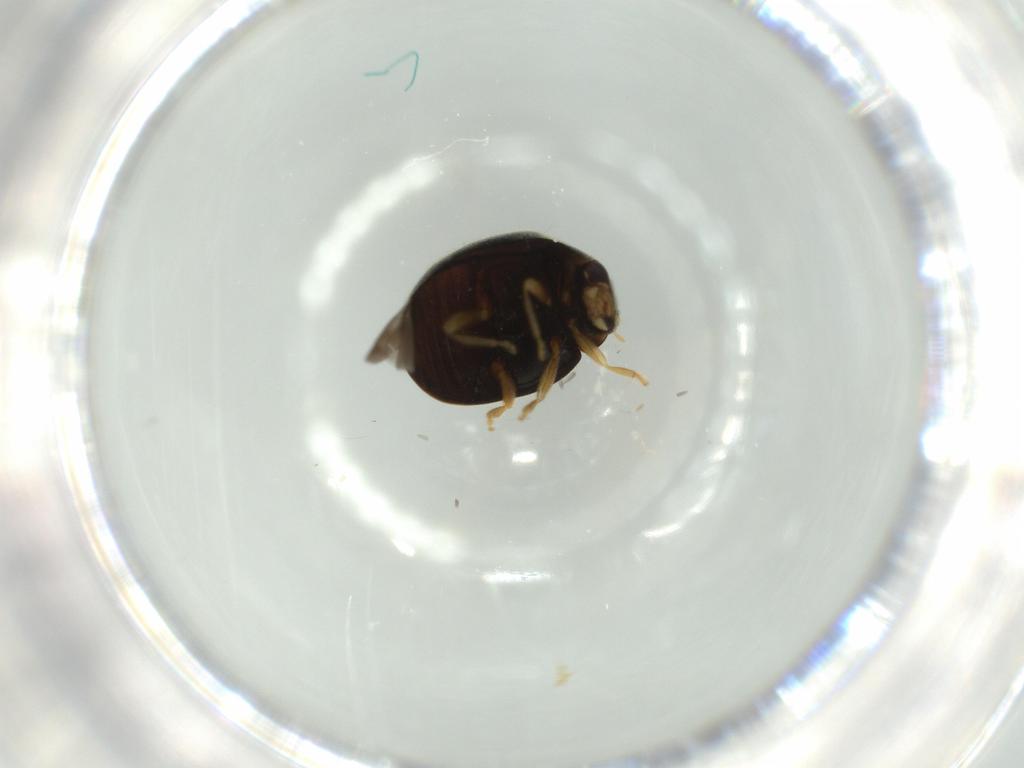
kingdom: Animalia
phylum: Arthropoda
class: Insecta
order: Coleoptera
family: Coccinellidae
